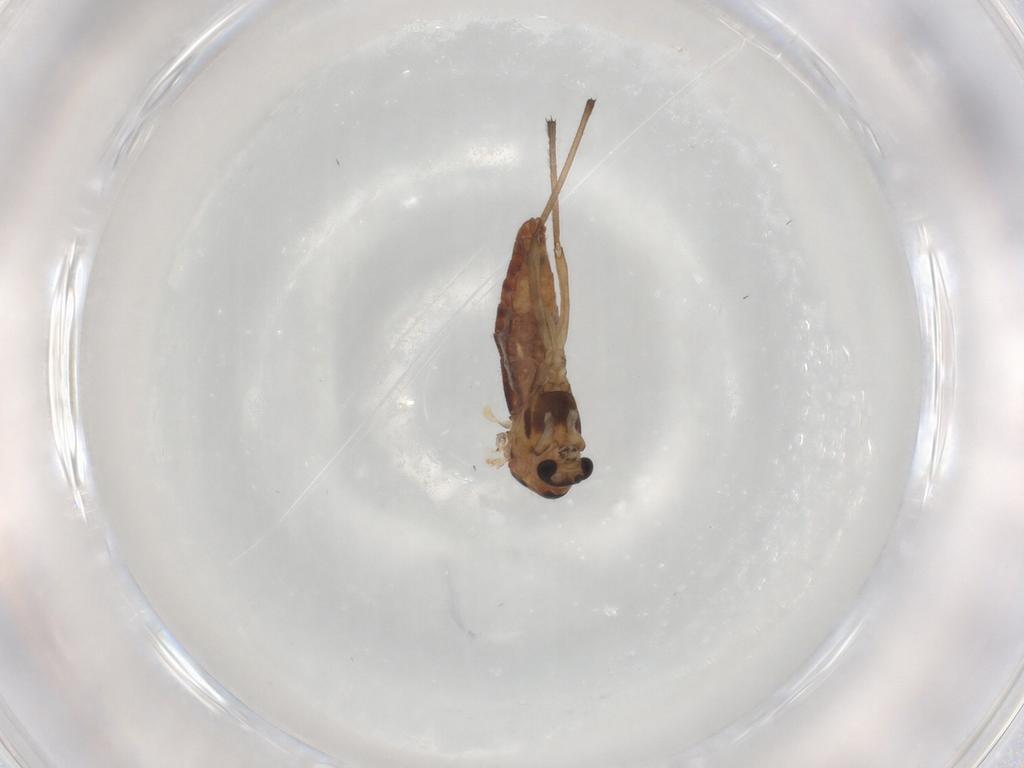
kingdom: Animalia
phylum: Arthropoda
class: Insecta
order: Diptera
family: Chironomidae
